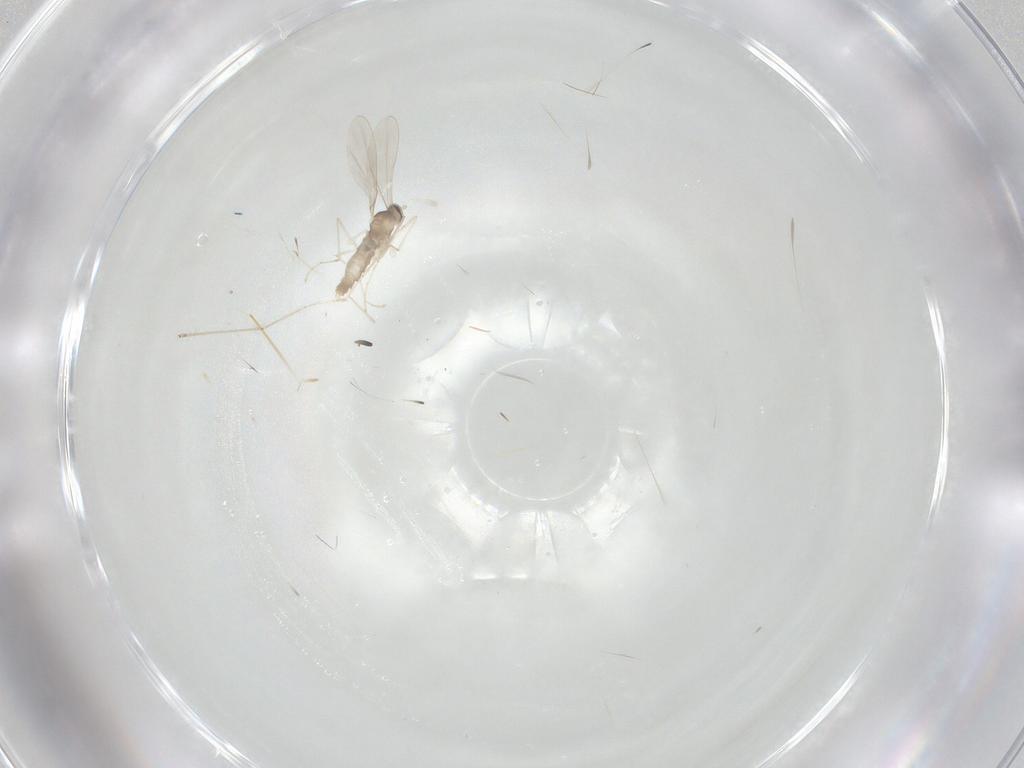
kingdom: Animalia
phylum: Arthropoda
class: Insecta
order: Diptera
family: Cecidomyiidae
